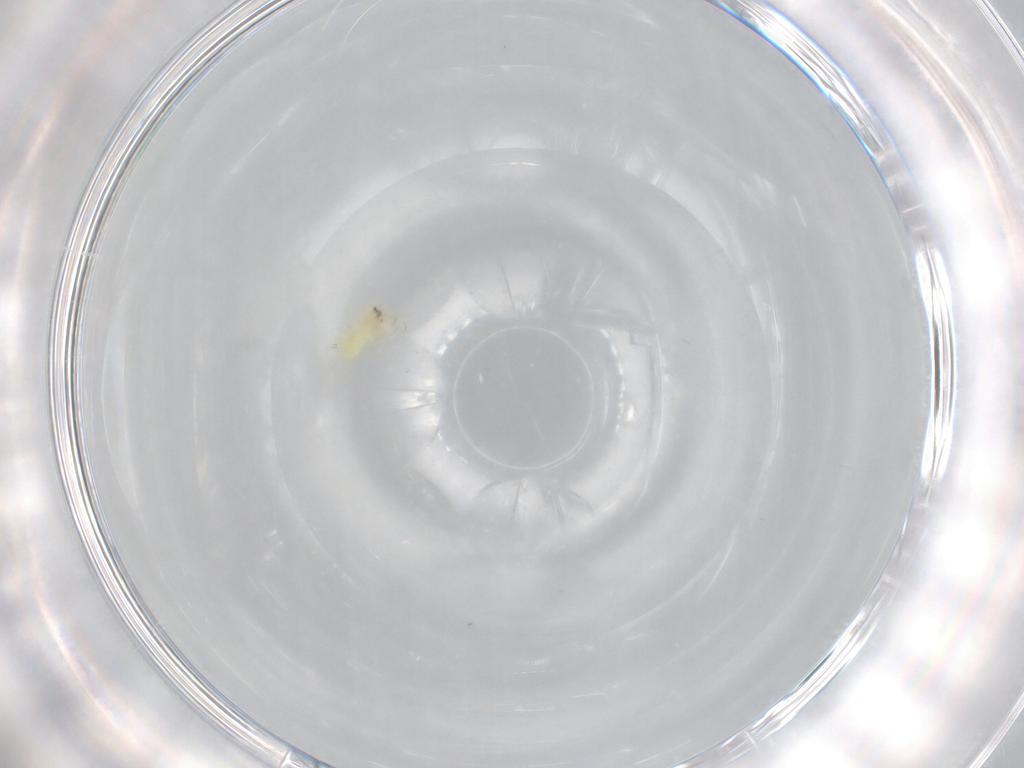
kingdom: Animalia
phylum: Arthropoda
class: Insecta
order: Hemiptera
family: Aleyrodidae
